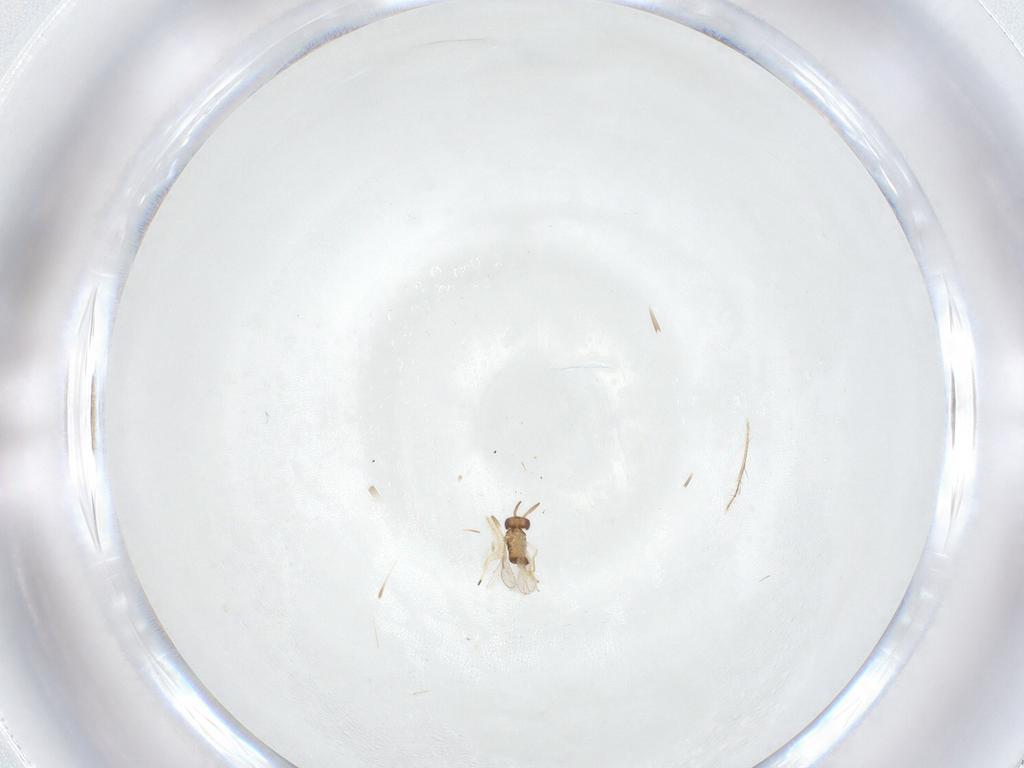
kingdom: Animalia
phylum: Arthropoda
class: Insecta
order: Hymenoptera
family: Aphelinidae
